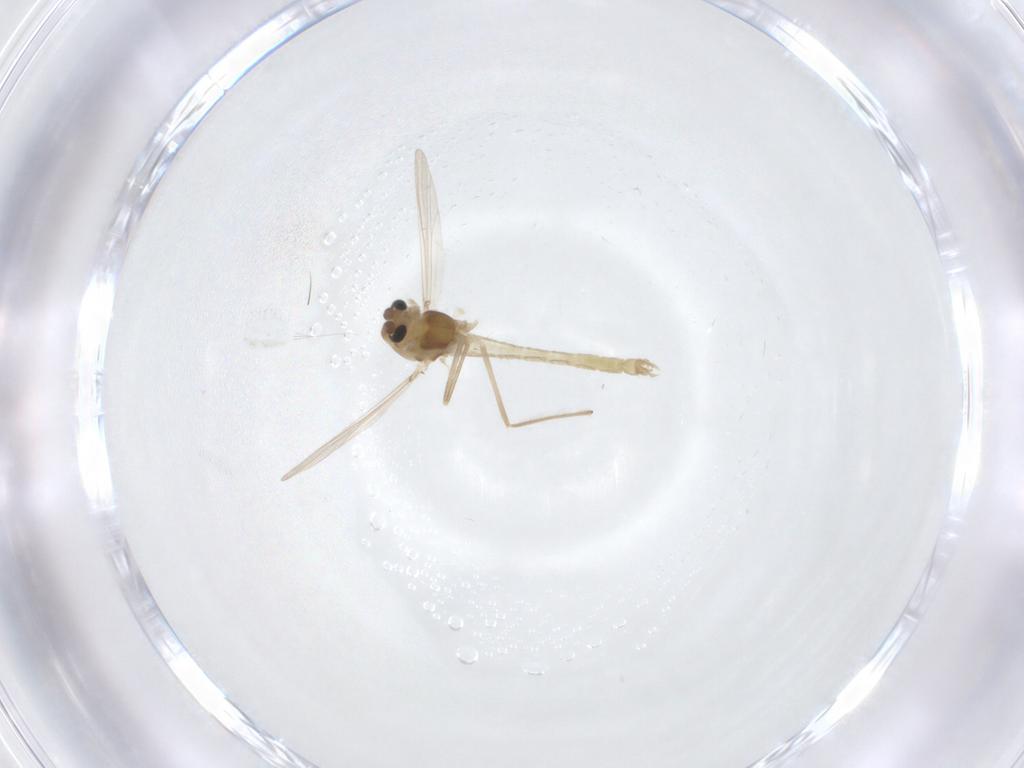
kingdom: Animalia
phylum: Arthropoda
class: Insecta
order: Diptera
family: Chironomidae
